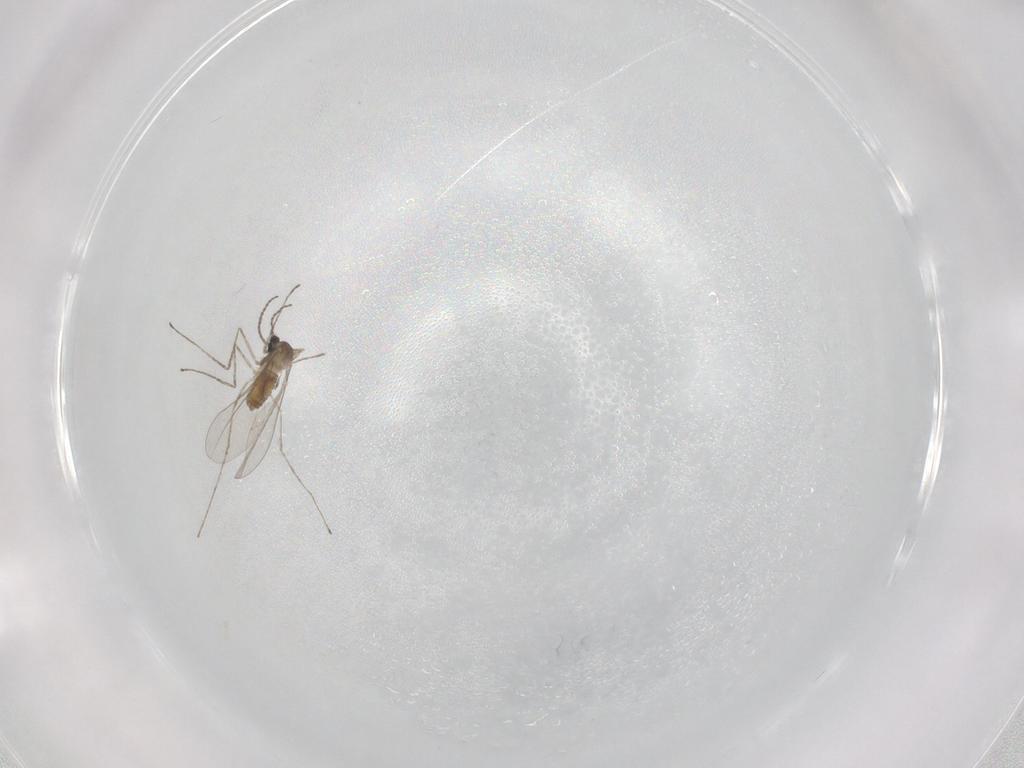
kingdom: Animalia
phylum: Arthropoda
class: Insecta
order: Diptera
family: Cecidomyiidae
